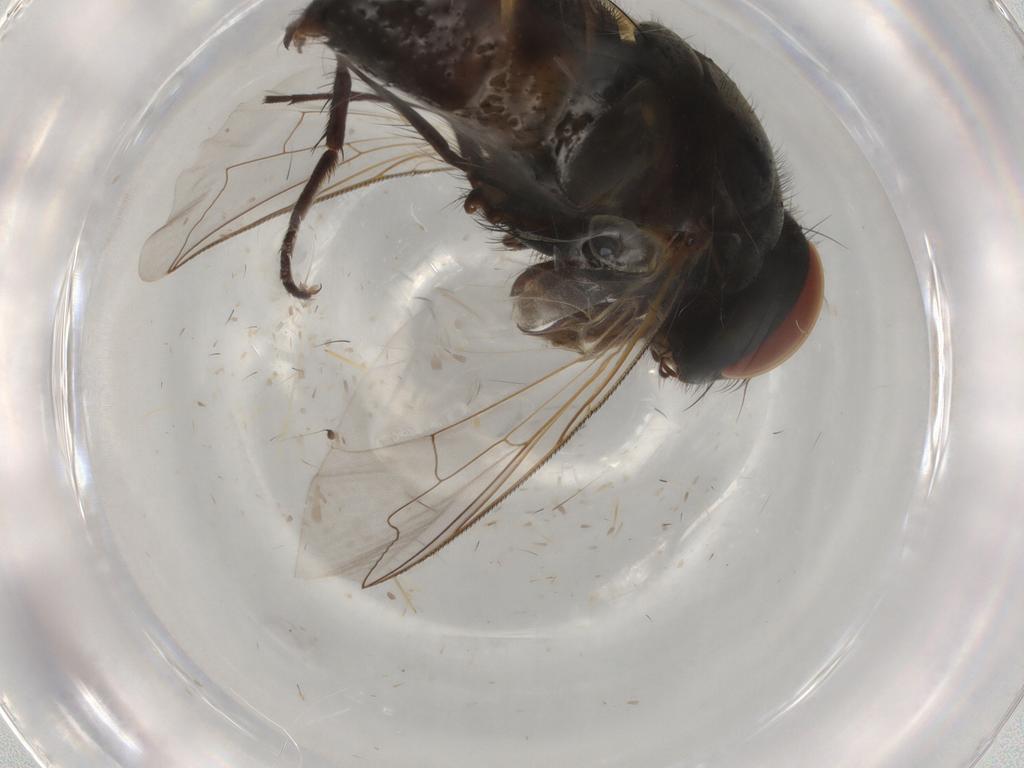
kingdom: Animalia
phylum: Arthropoda
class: Insecta
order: Diptera
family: Sarcophagidae
